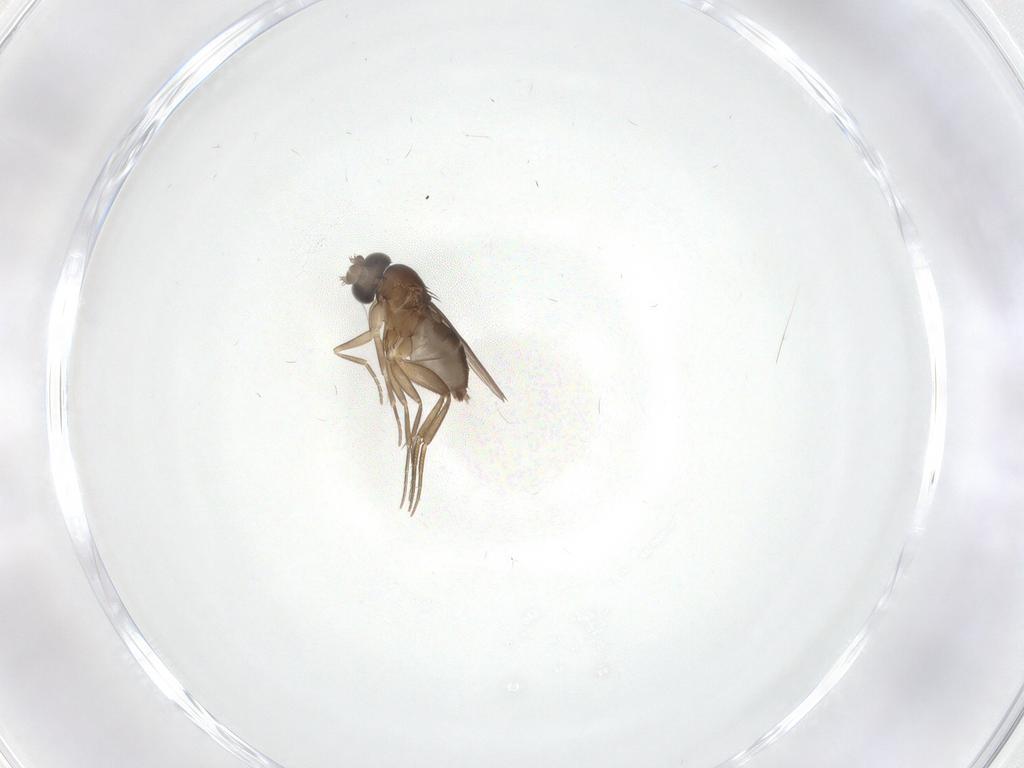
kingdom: Animalia
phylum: Arthropoda
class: Insecta
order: Diptera
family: Phoridae
